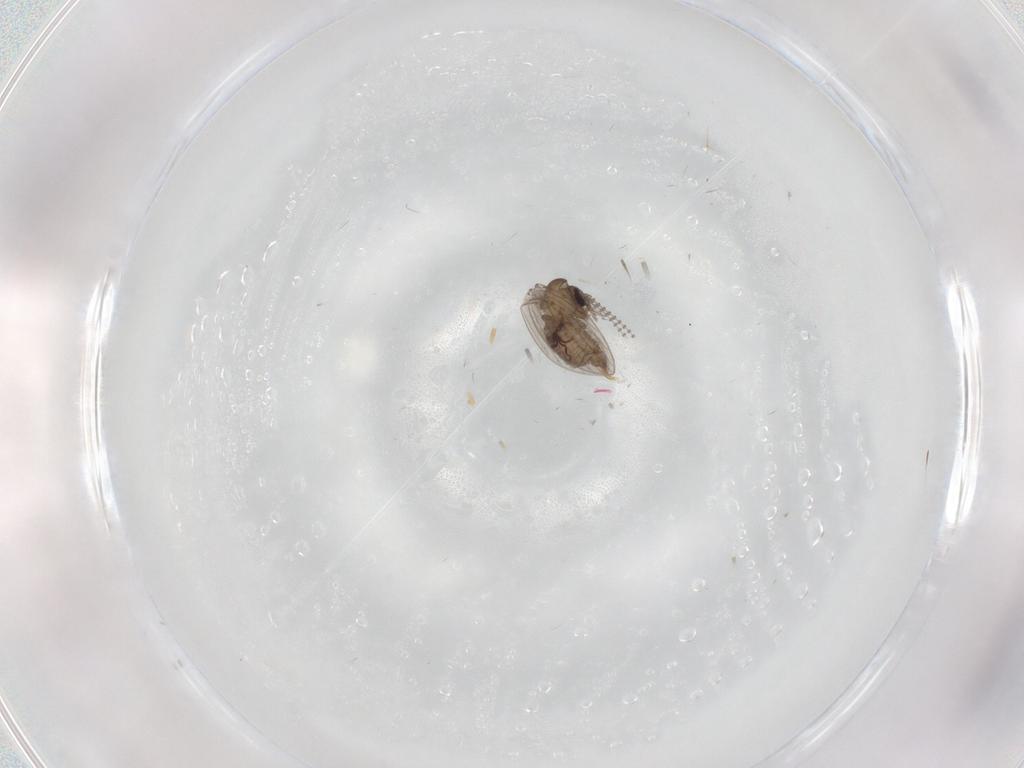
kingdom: Animalia
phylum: Arthropoda
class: Insecta
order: Diptera
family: Psychodidae
